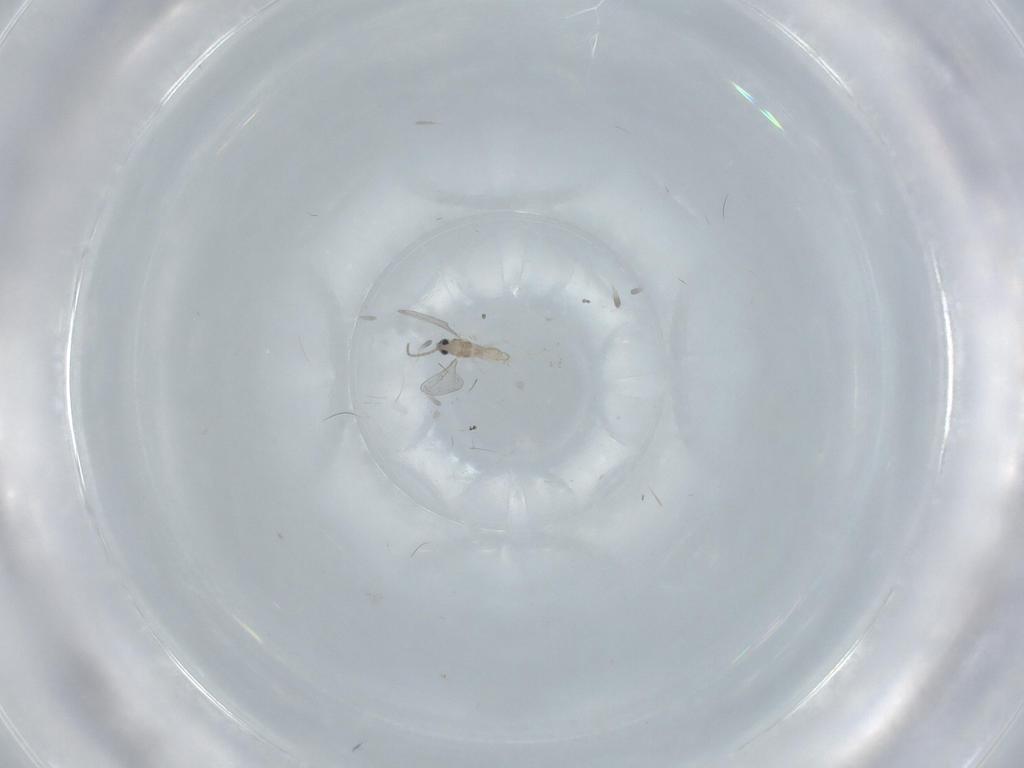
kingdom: Animalia
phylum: Arthropoda
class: Insecta
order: Diptera
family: Cecidomyiidae
